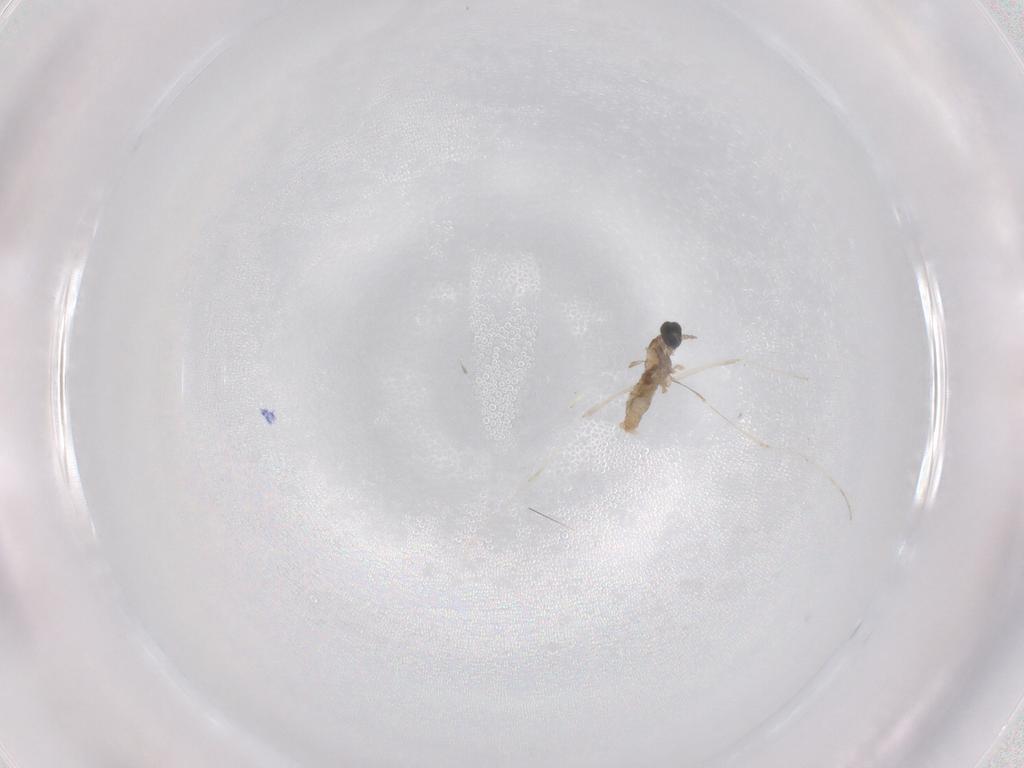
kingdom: Animalia
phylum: Arthropoda
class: Insecta
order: Diptera
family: Cecidomyiidae
